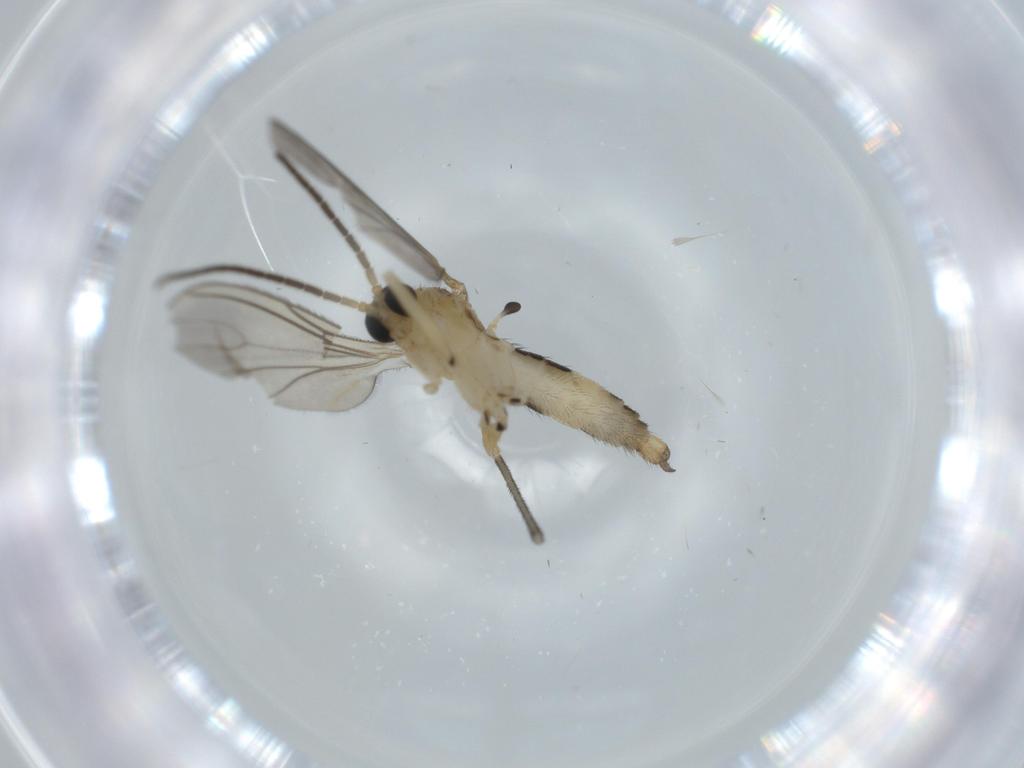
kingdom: Animalia
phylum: Arthropoda
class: Insecta
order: Diptera
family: Sciaridae
